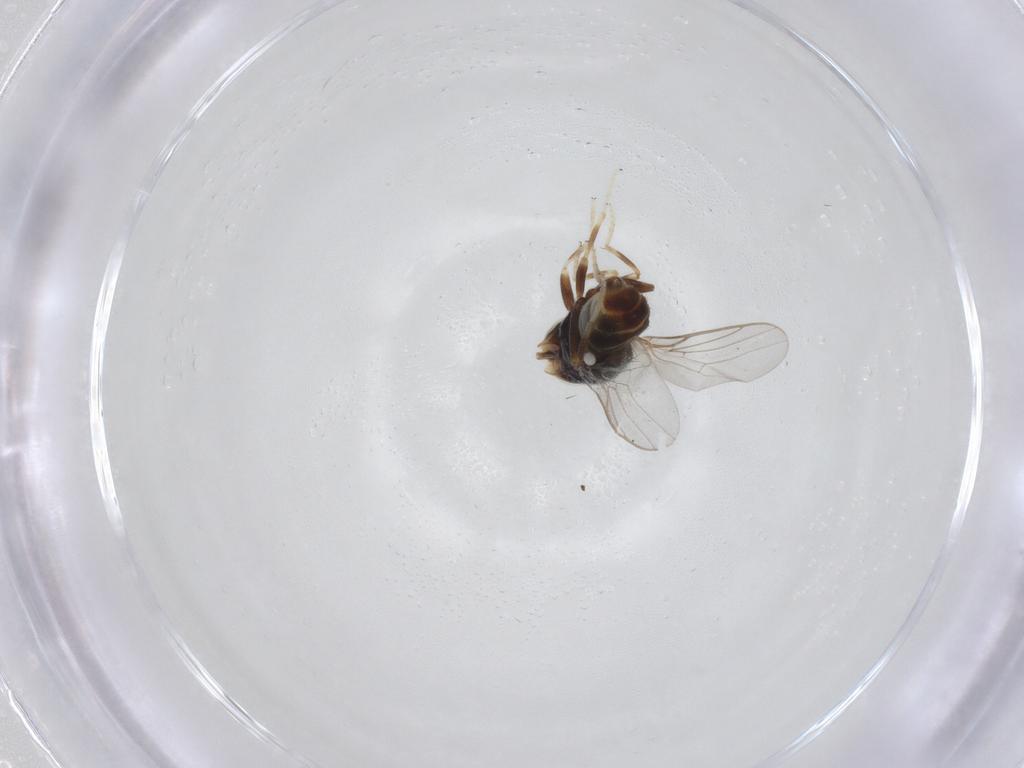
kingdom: Animalia
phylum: Arthropoda
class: Insecta
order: Diptera
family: Chloropidae
